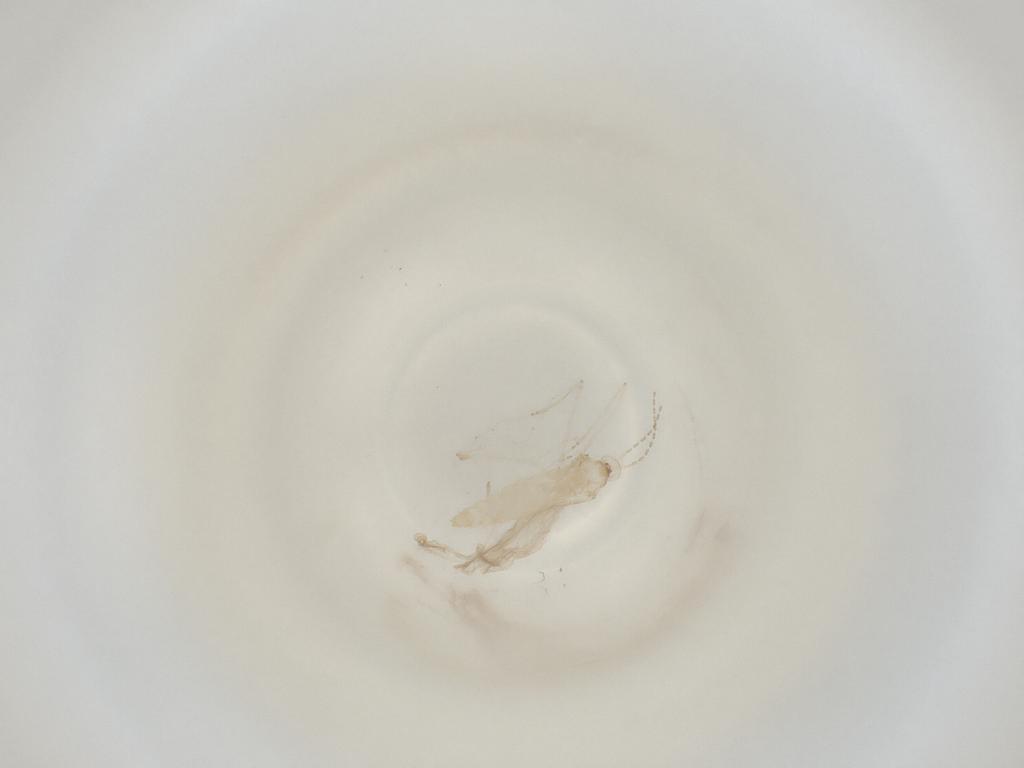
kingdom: Animalia
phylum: Arthropoda
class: Insecta
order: Diptera
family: Cecidomyiidae
